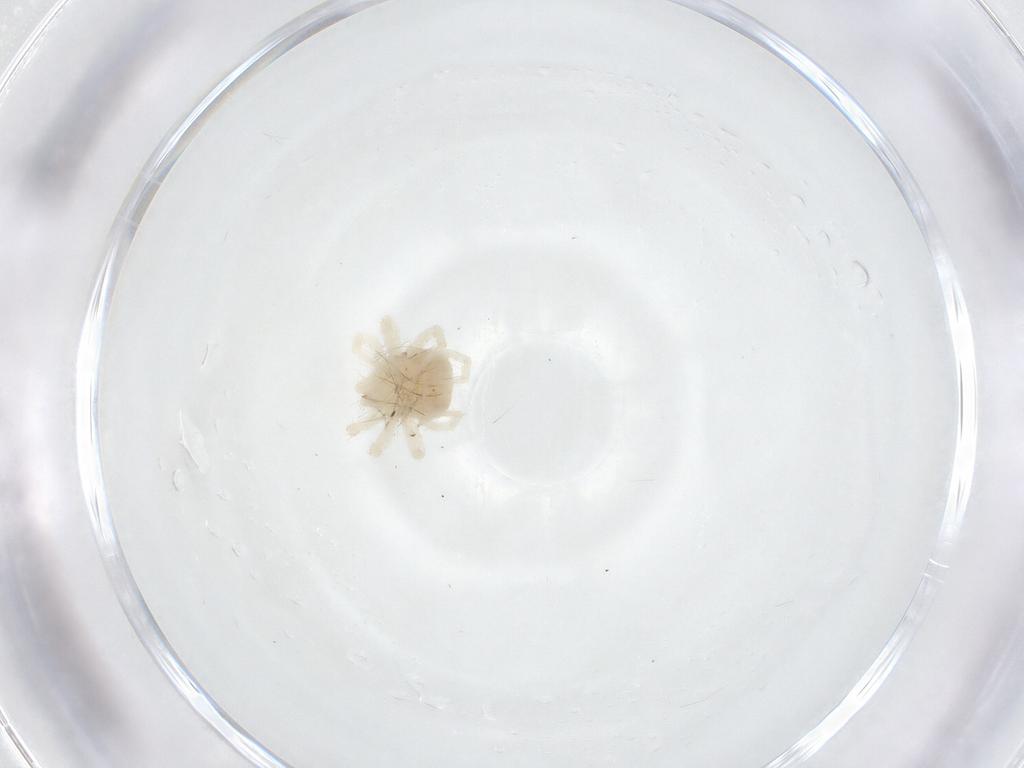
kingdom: Animalia
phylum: Arthropoda
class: Arachnida
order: Trombidiformes
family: Anystidae
